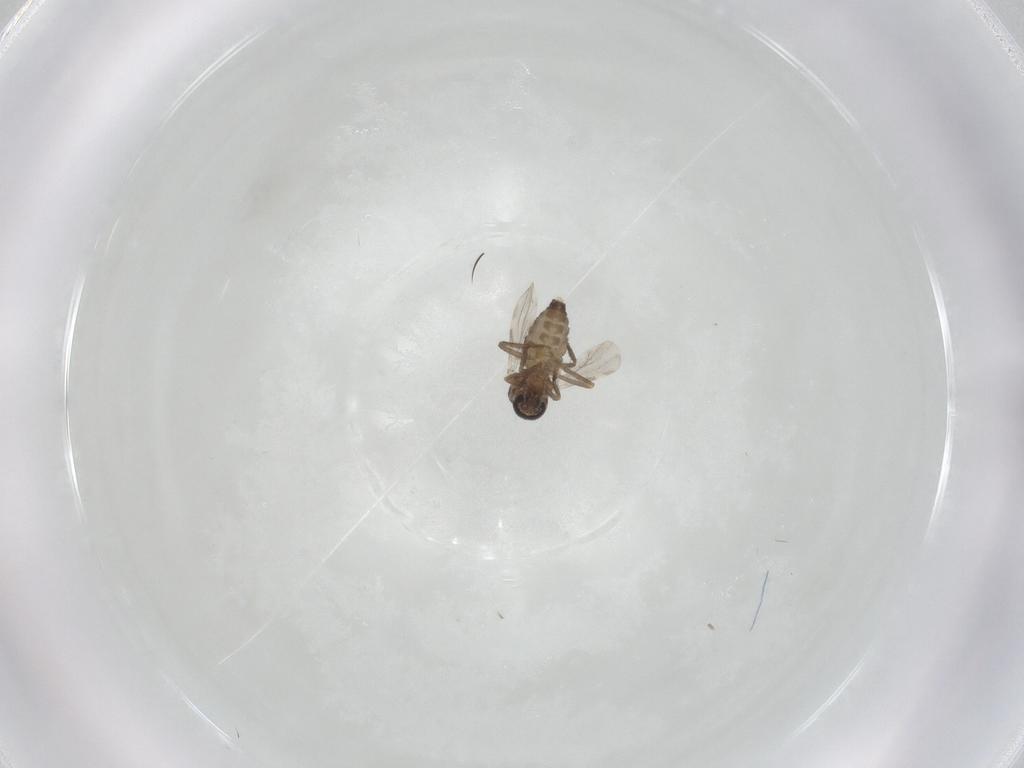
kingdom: Animalia
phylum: Arthropoda
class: Insecta
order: Diptera
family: Ceratopogonidae
